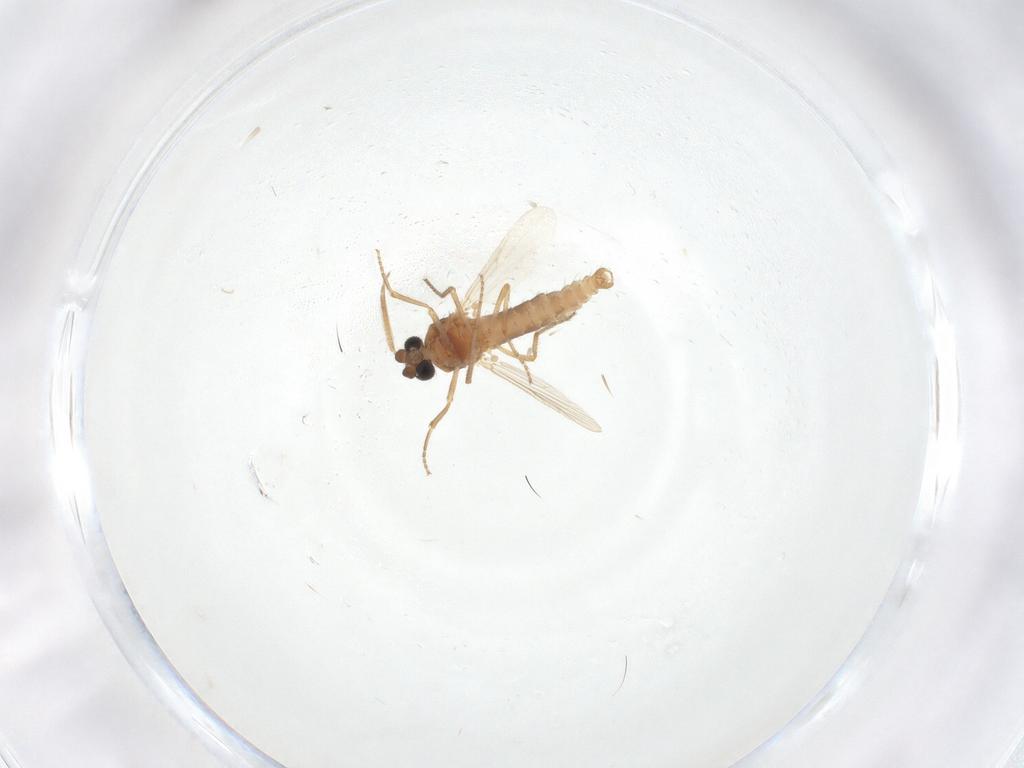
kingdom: Animalia
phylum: Arthropoda
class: Insecta
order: Diptera
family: Ceratopogonidae
